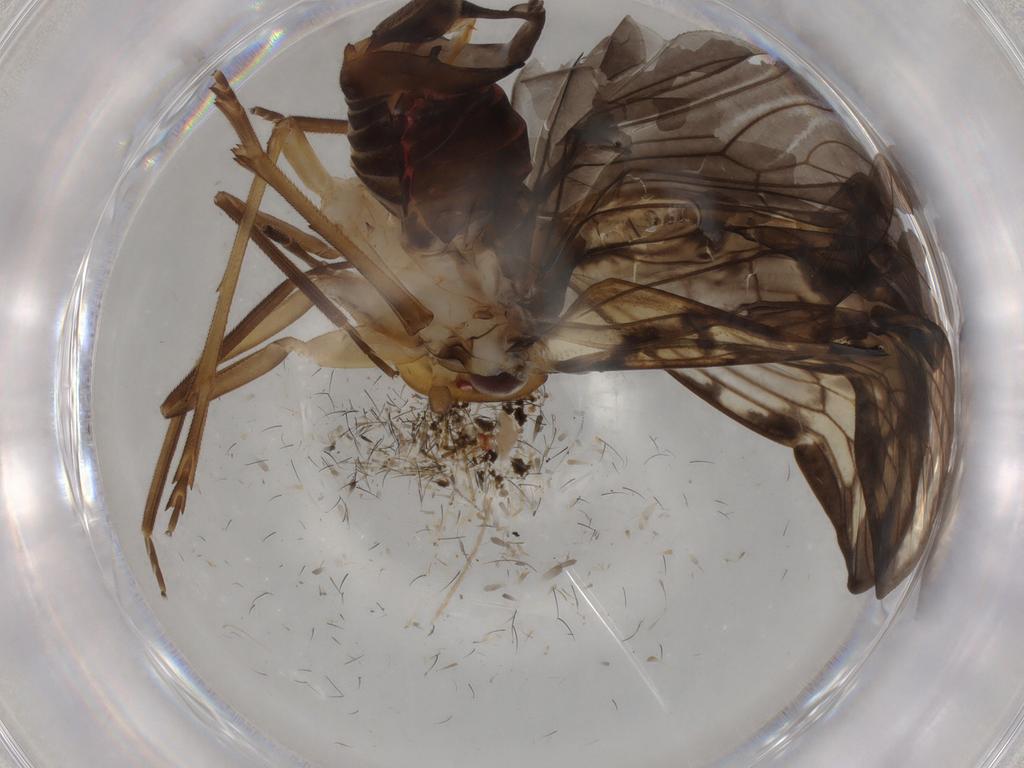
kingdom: Animalia
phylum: Arthropoda
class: Insecta
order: Hemiptera
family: Cixiidae
